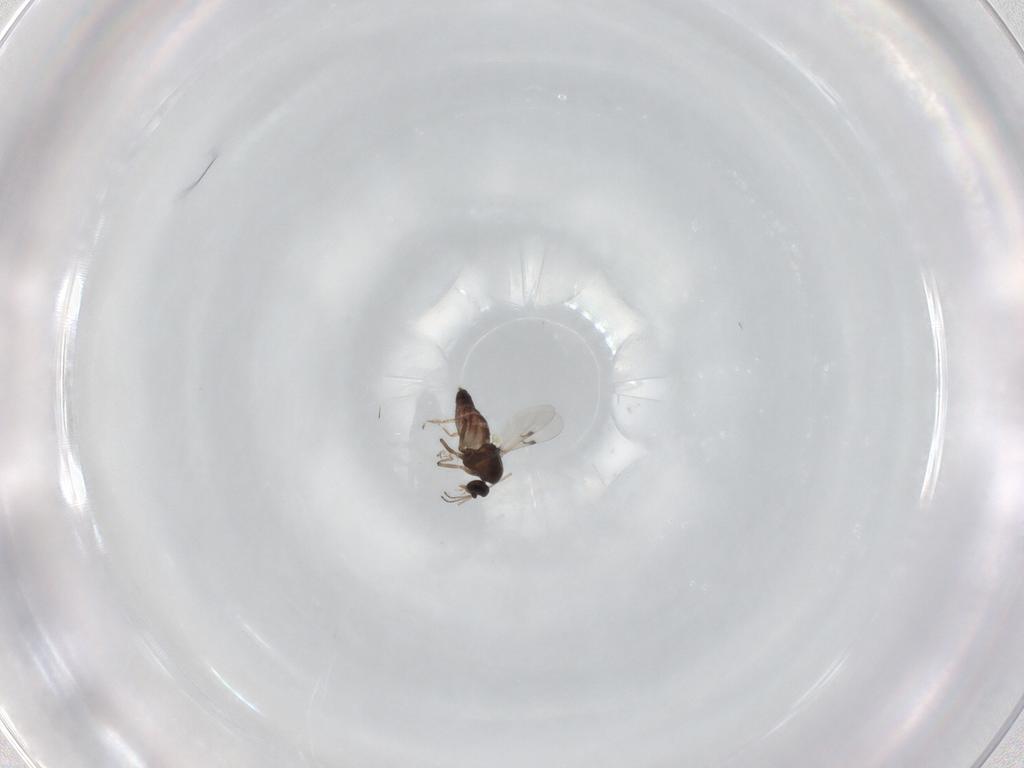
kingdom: Animalia
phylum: Arthropoda
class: Insecta
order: Diptera
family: Ceratopogonidae
